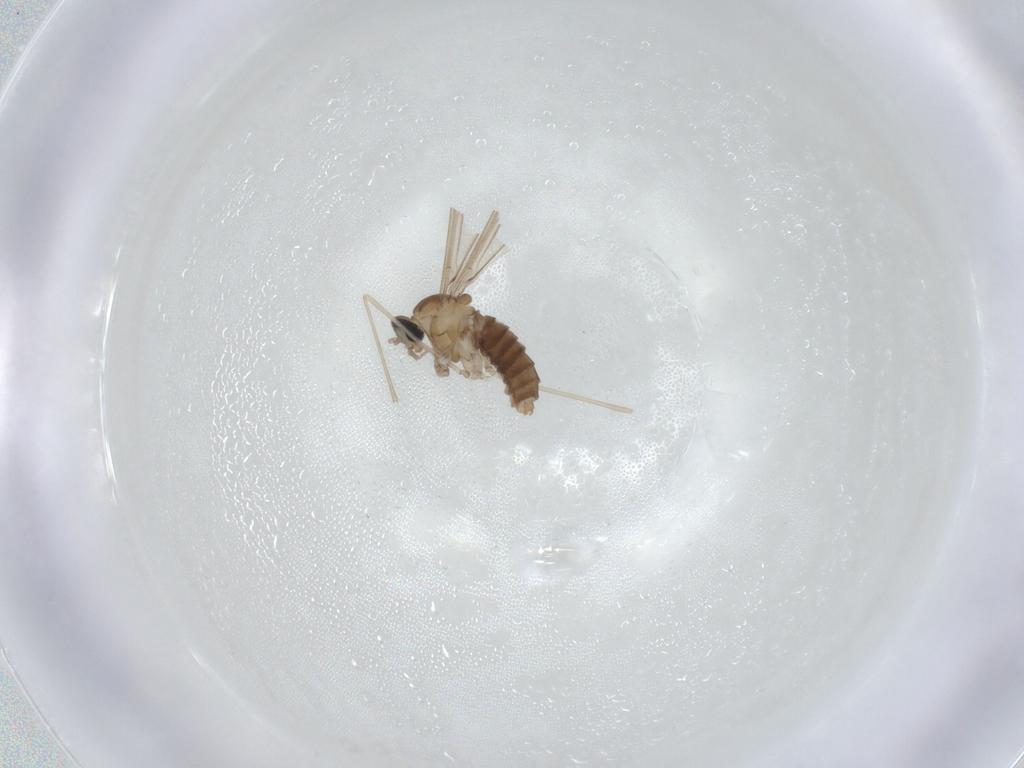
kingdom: Animalia
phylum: Arthropoda
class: Insecta
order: Diptera
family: Cecidomyiidae
